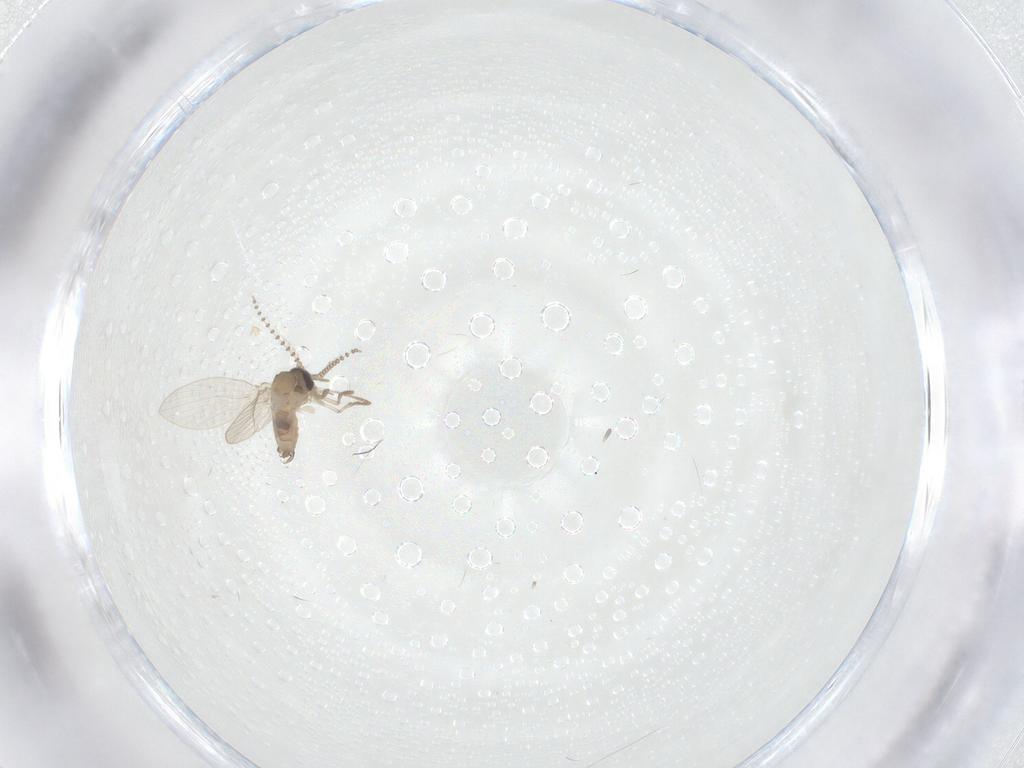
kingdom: Animalia
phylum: Arthropoda
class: Insecta
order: Diptera
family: Psychodidae
